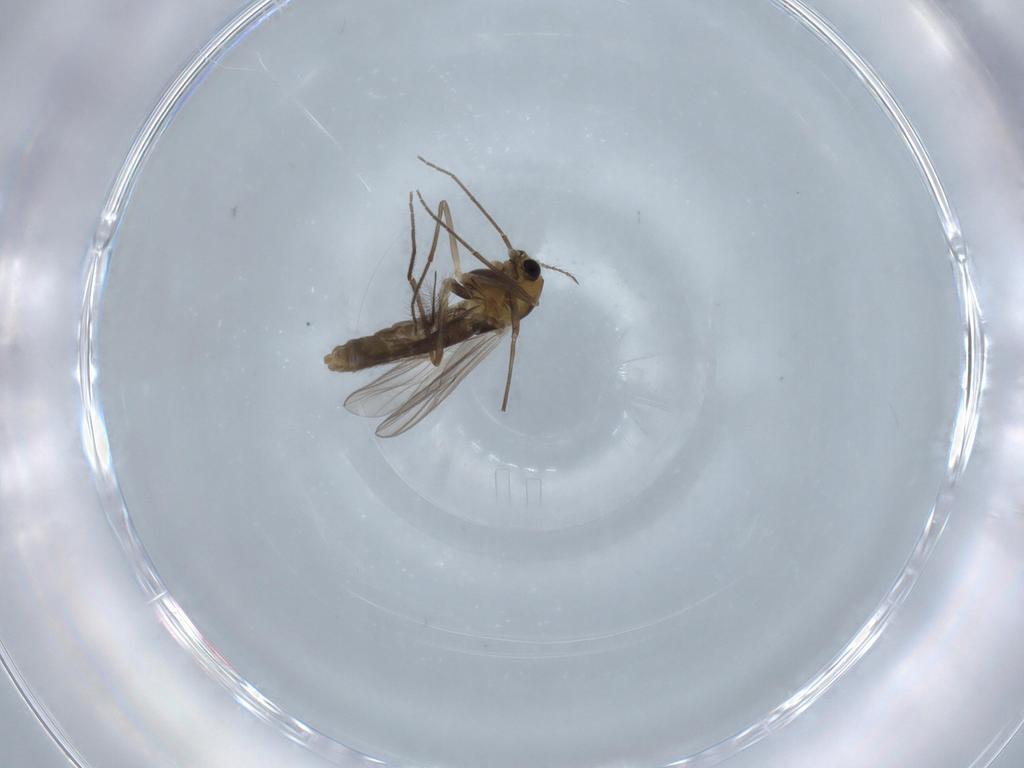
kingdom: Animalia
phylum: Arthropoda
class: Insecta
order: Diptera
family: Chironomidae
